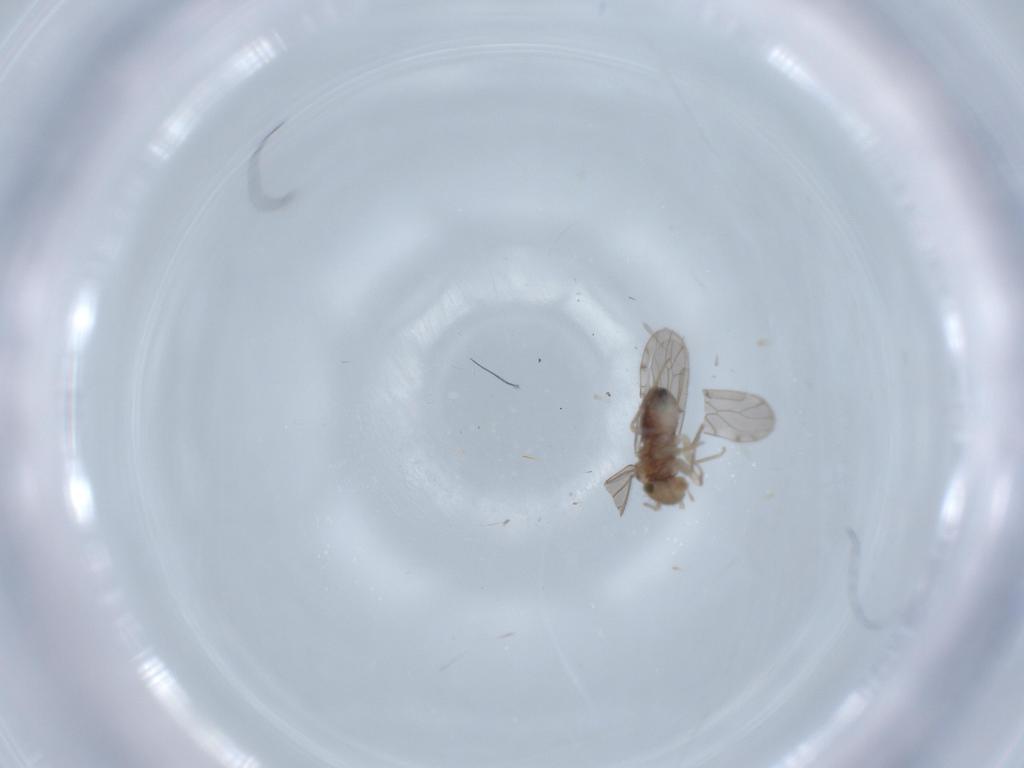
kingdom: Animalia
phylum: Arthropoda
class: Insecta
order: Psocodea
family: Ectopsocidae
